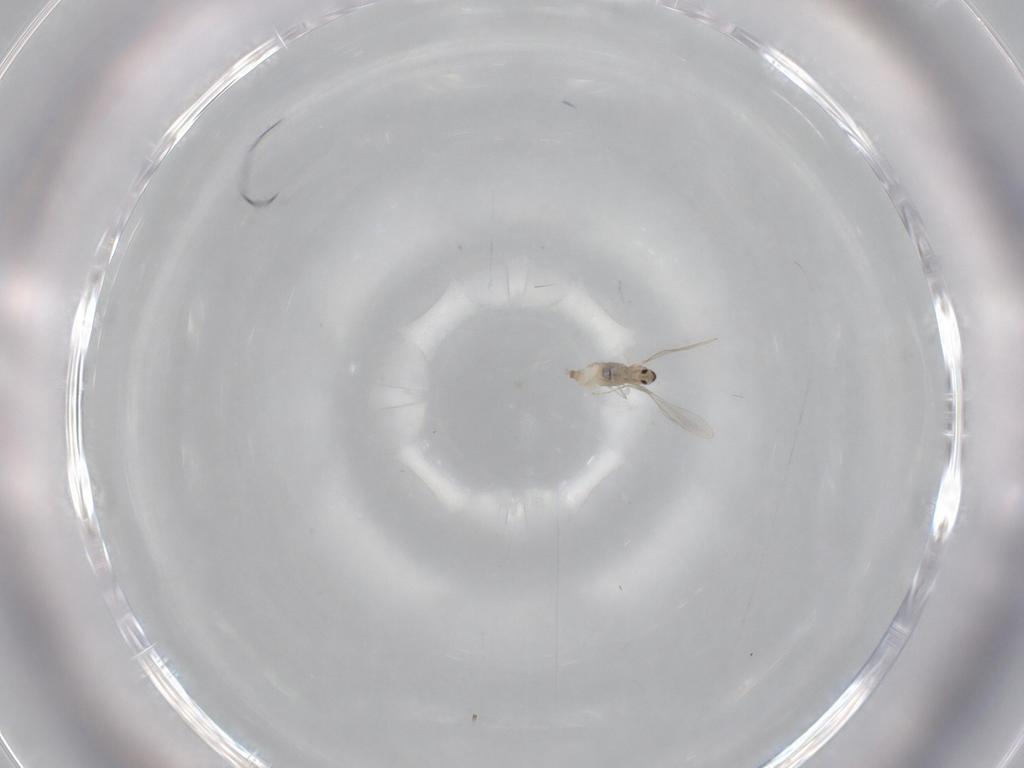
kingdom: Animalia
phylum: Arthropoda
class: Insecta
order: Diptera
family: Cecidomyiidae
